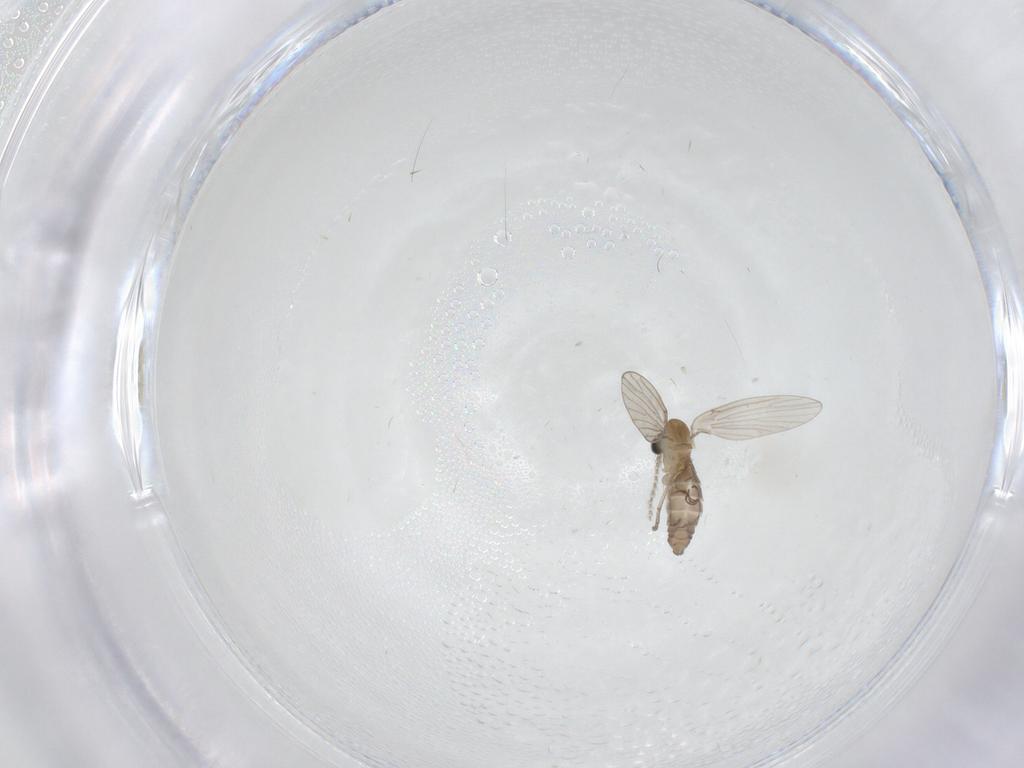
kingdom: Animalia
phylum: Arthropoda
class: Insecta
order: Diptera
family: Psychodidae
